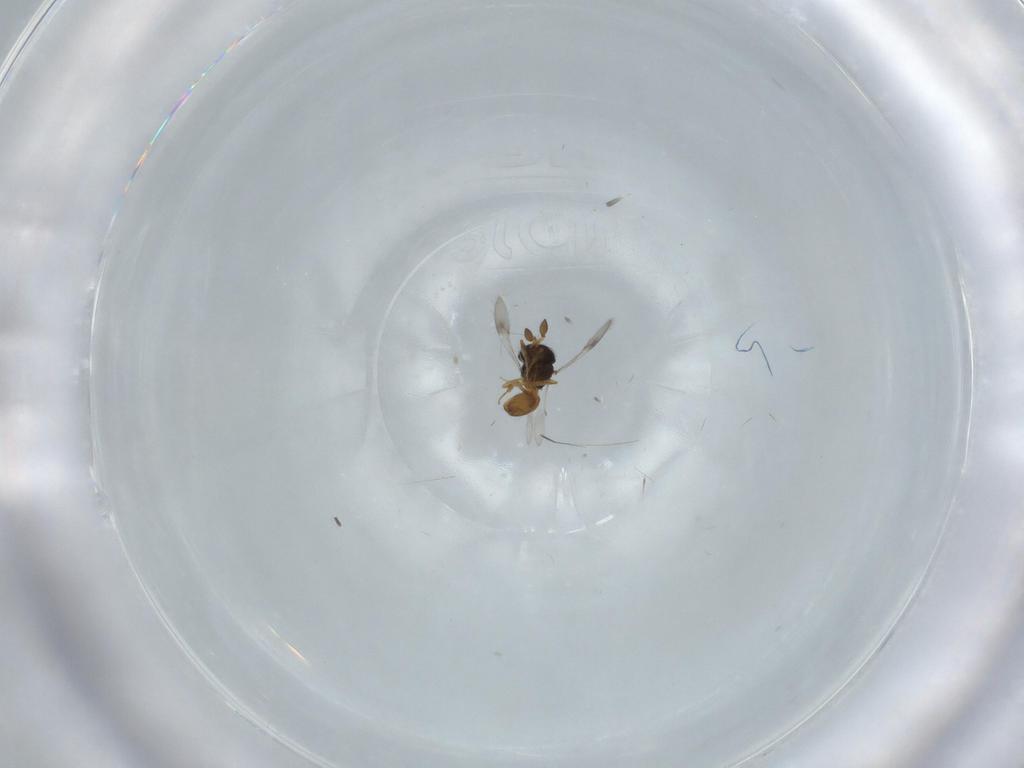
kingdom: Animalia
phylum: Arthropoda
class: Insecta
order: Hymenoptera
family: Scelionidae
